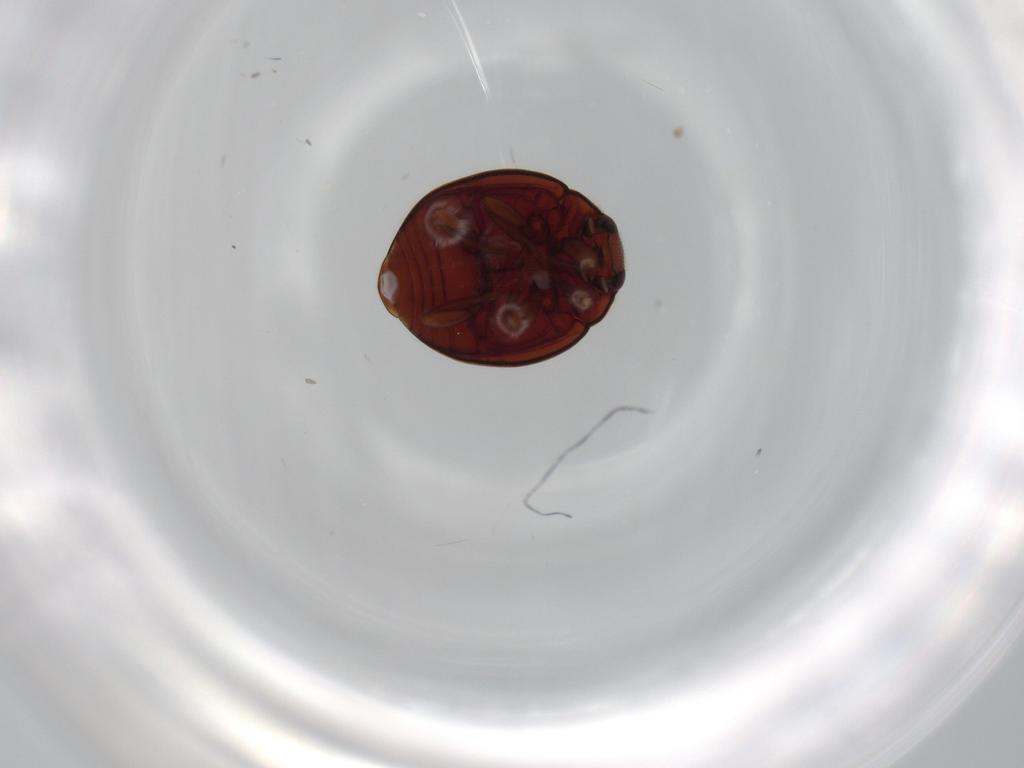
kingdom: Animalia
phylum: Arthropoda
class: Insecta
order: Coleoptera
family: Coccinellidae
